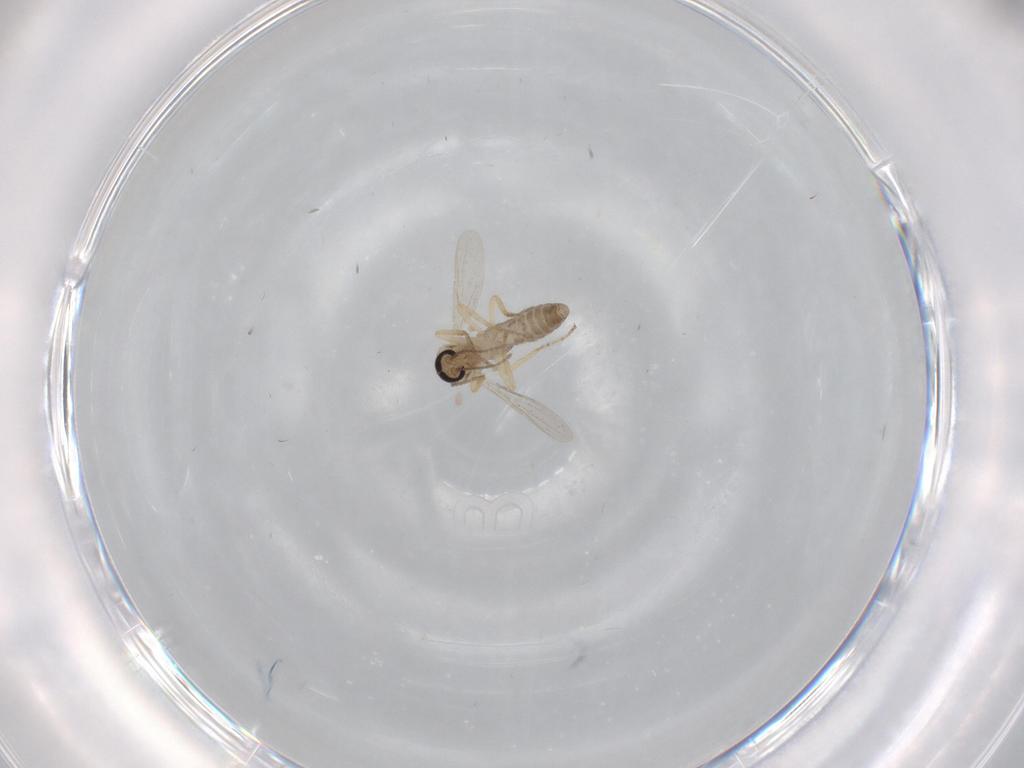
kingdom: Animalia
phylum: Arthropoda
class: Insecta
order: Diptera
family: Ceratopogonidae
